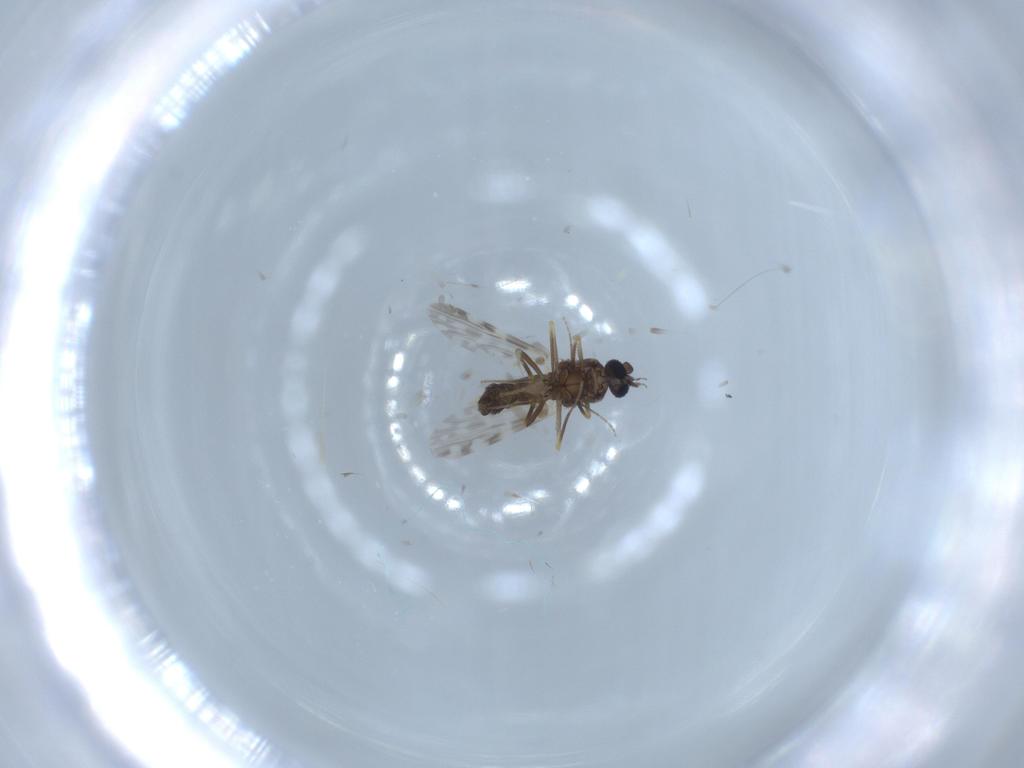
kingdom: Animalia
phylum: Arthropoda
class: Insecta
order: Diptera
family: Ceratopogonidae
